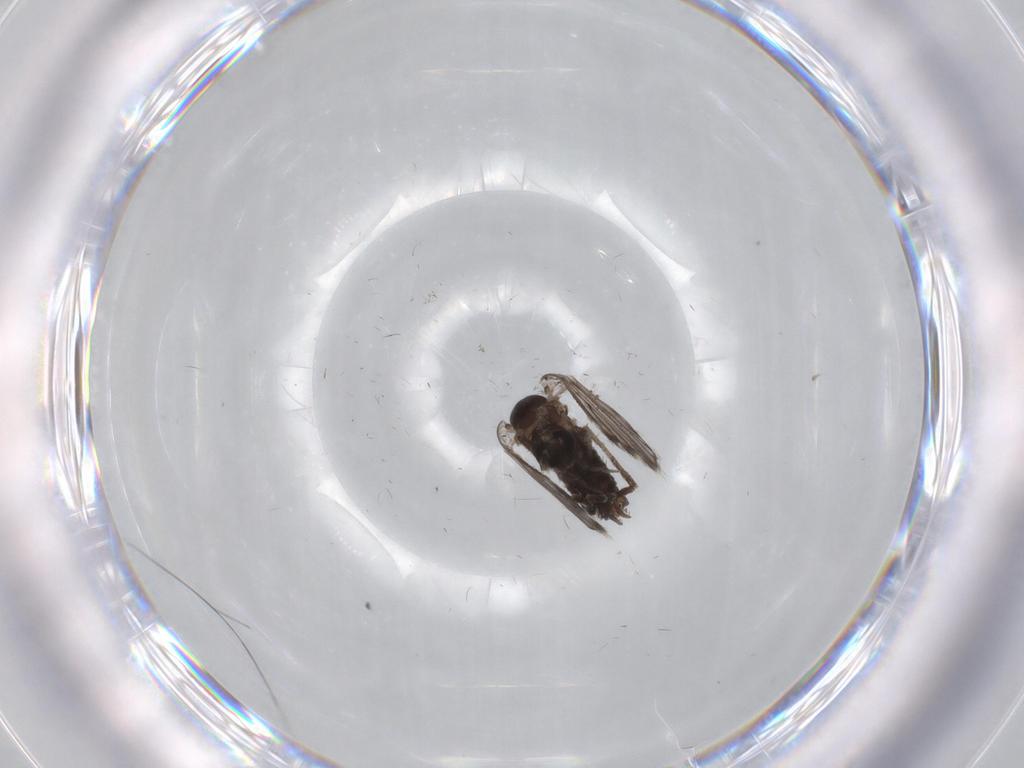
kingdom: Animalia
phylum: Arthropoda
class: Insecta
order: Diptera
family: Psychodidae
